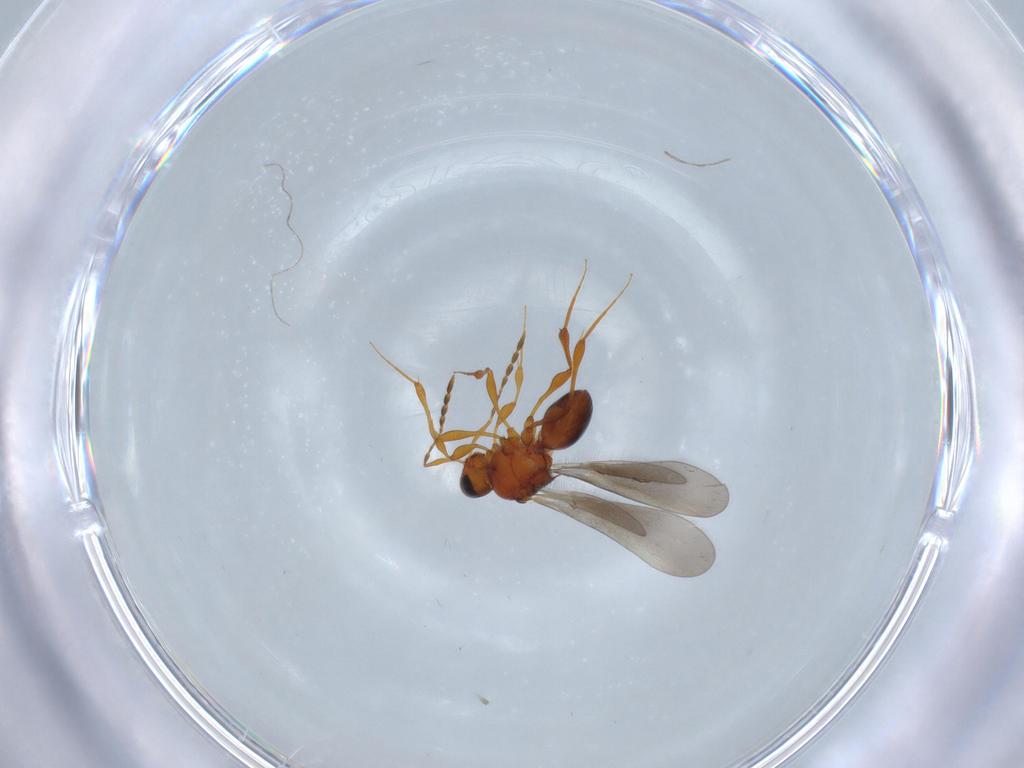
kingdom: Animalia
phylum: Arthropoda
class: Insecta
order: Hymenoptera
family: Platygastridae
